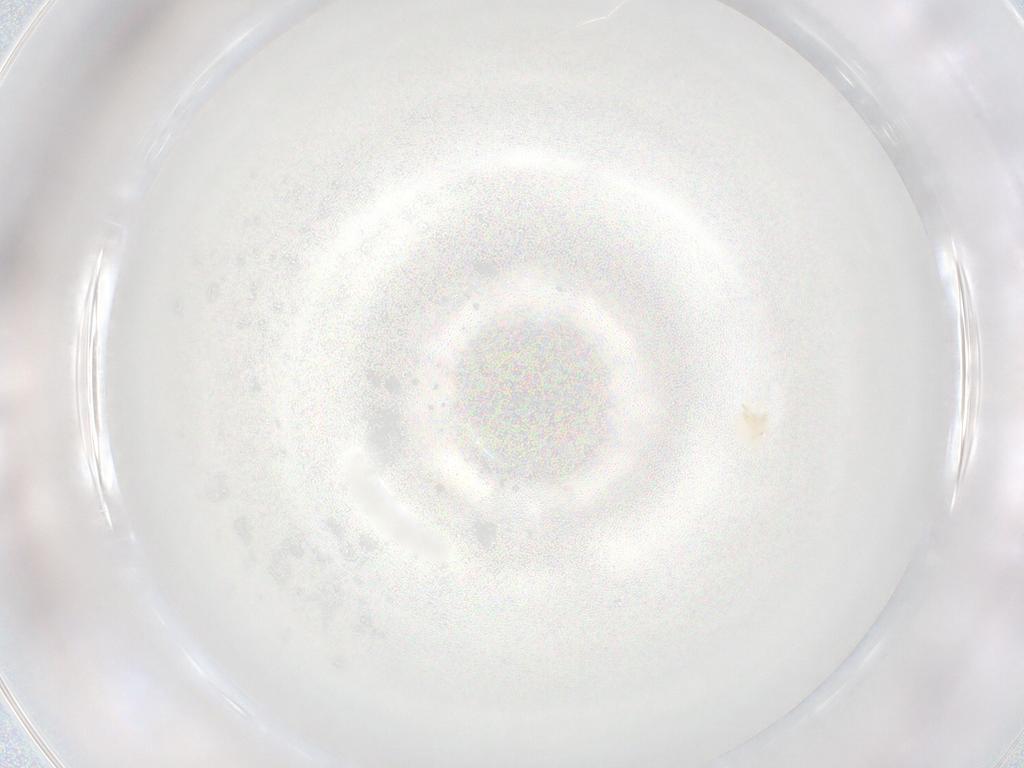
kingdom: Animalia
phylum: Arthropoda
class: Arachnida
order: Trombidiformes
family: Anystidae
